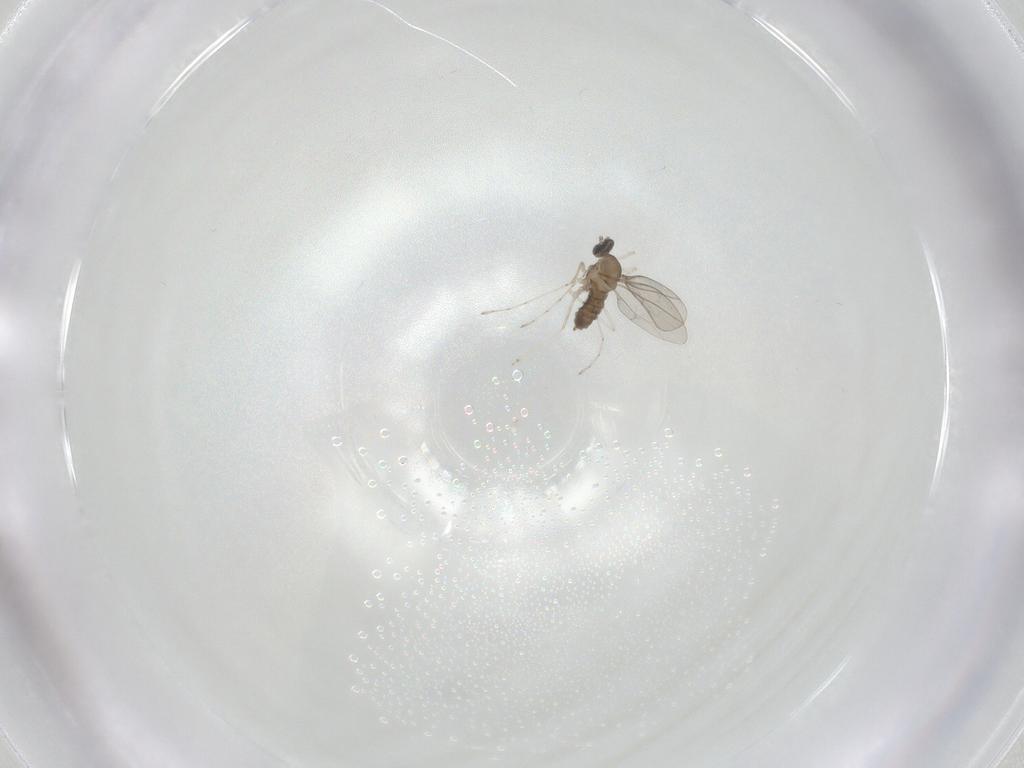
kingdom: Animalia
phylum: Arthropoda
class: Insecta
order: Diptera
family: Cecidomyiidae
